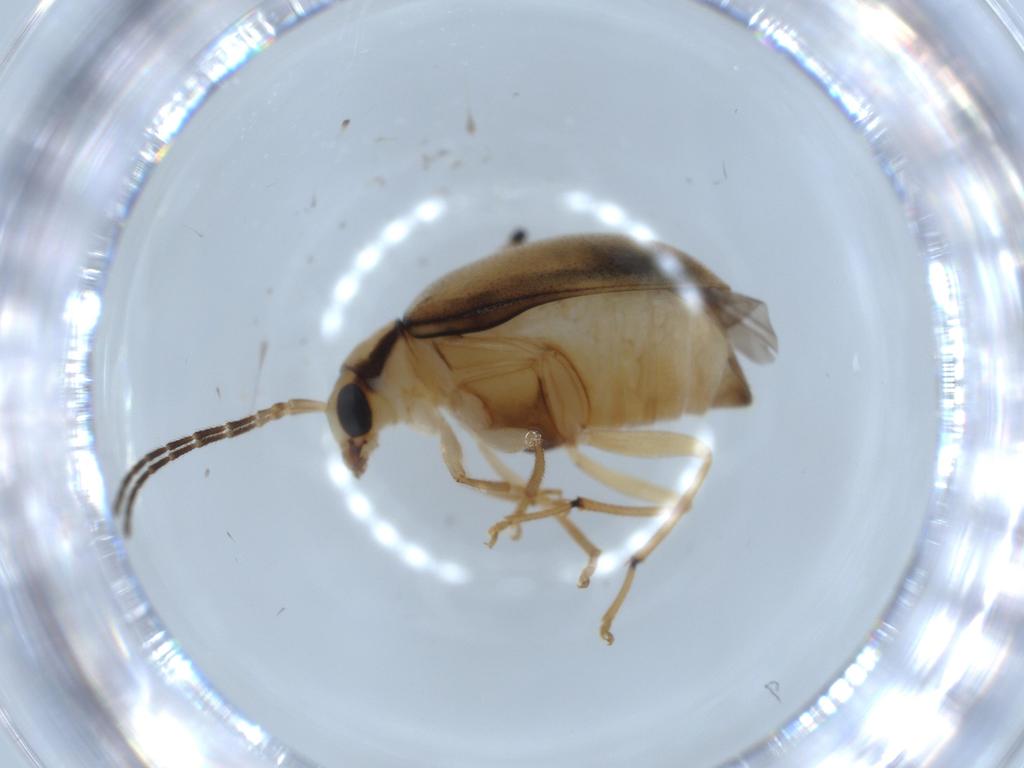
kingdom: Animalia
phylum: Arthropoda
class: Insecta
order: Coleoptera
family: Chrysomelidae
